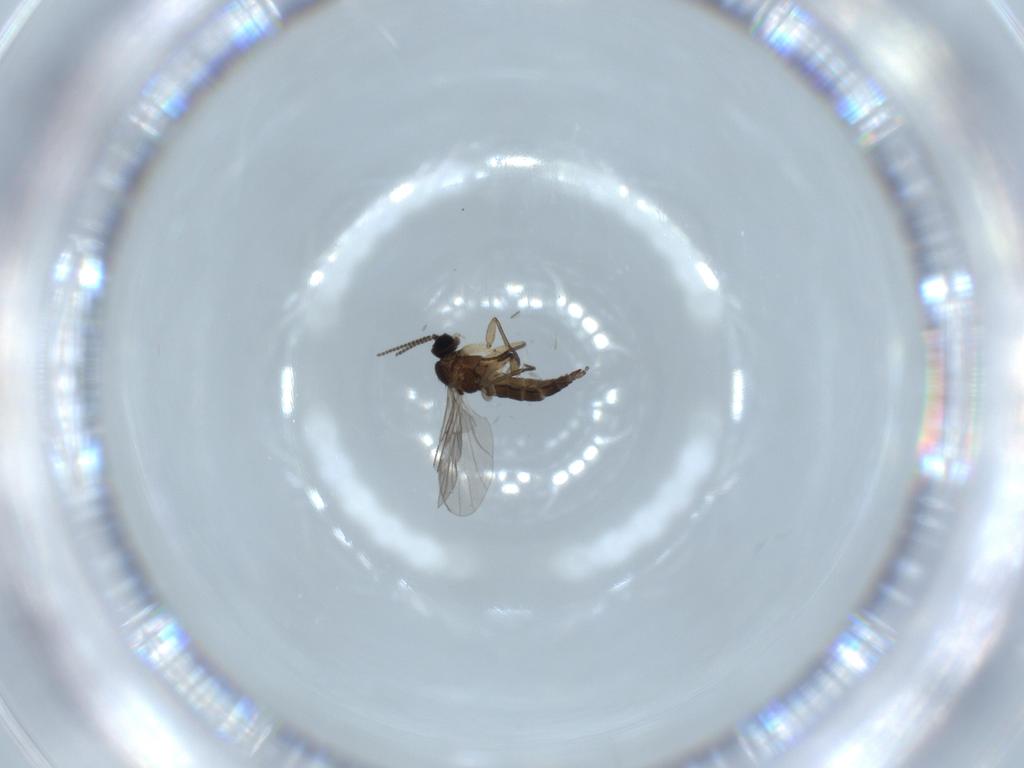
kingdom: Animalia
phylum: Arthropoda
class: Insecta
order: Diptera
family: Sciaridae
